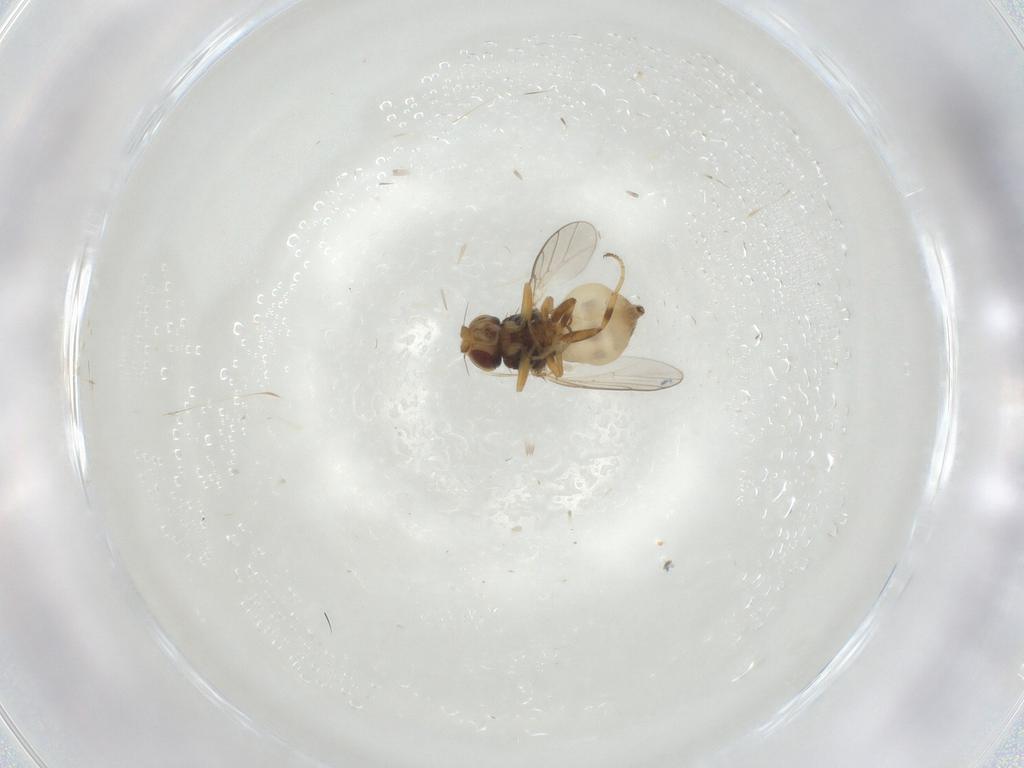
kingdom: Animalia
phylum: Arthropoda
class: Insecta
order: Diptera
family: Chloropidae
